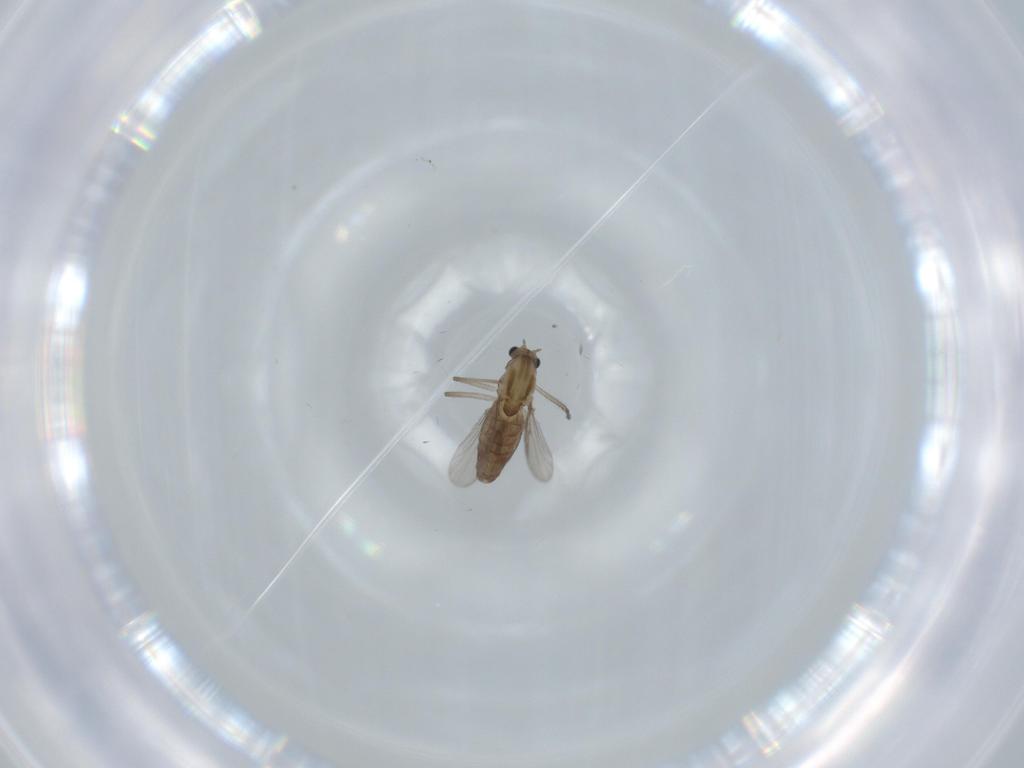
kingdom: Animalia
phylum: Arthropoda
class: Insecta
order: Diptera
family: Chironomidae
